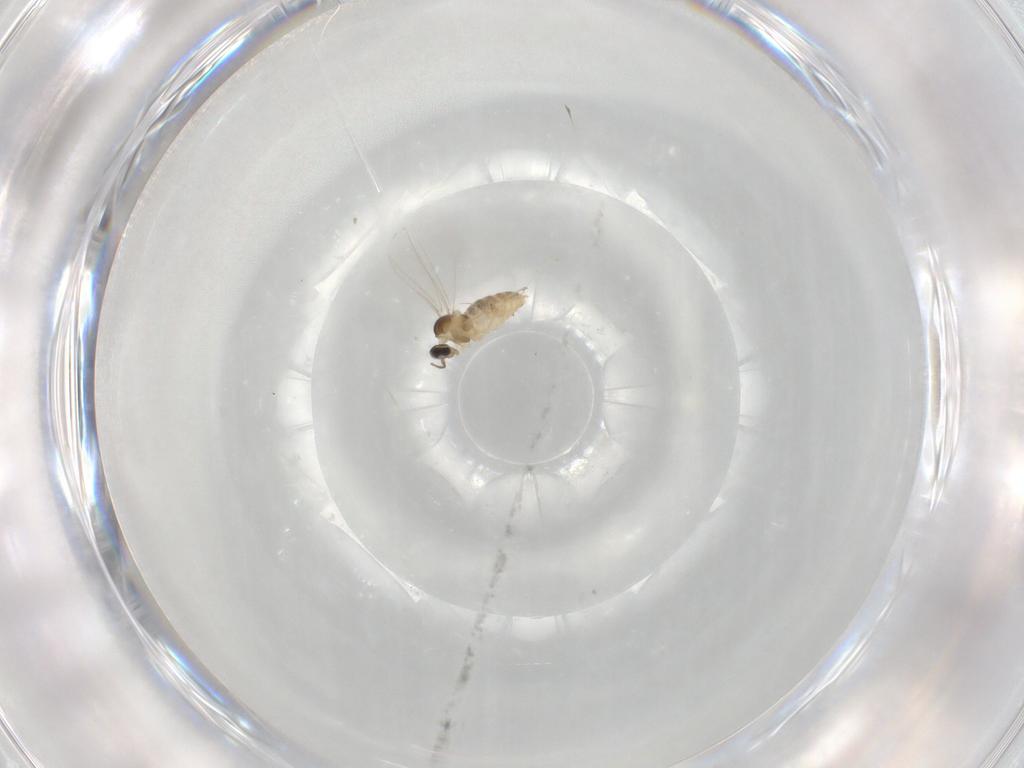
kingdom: Animalia
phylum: Arthropoda
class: Insecta
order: Diptera
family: Cecidomyiidae
